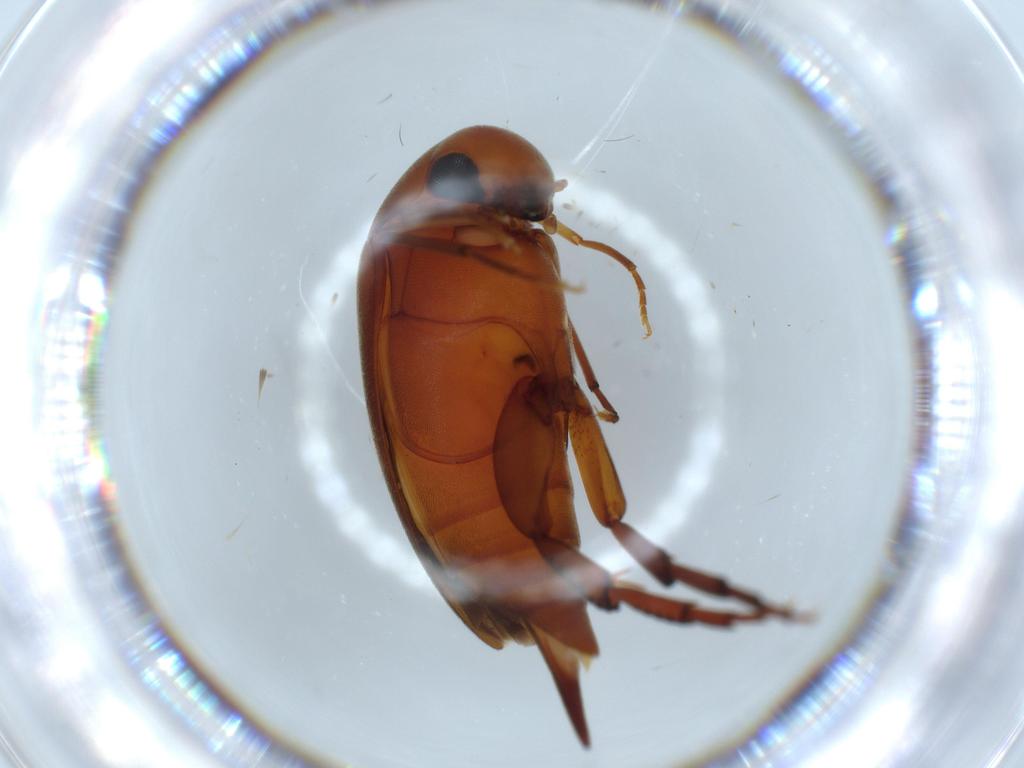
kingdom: Animalia
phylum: Arthropoda
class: Insecta
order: Coleoptera
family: Mordellidae
